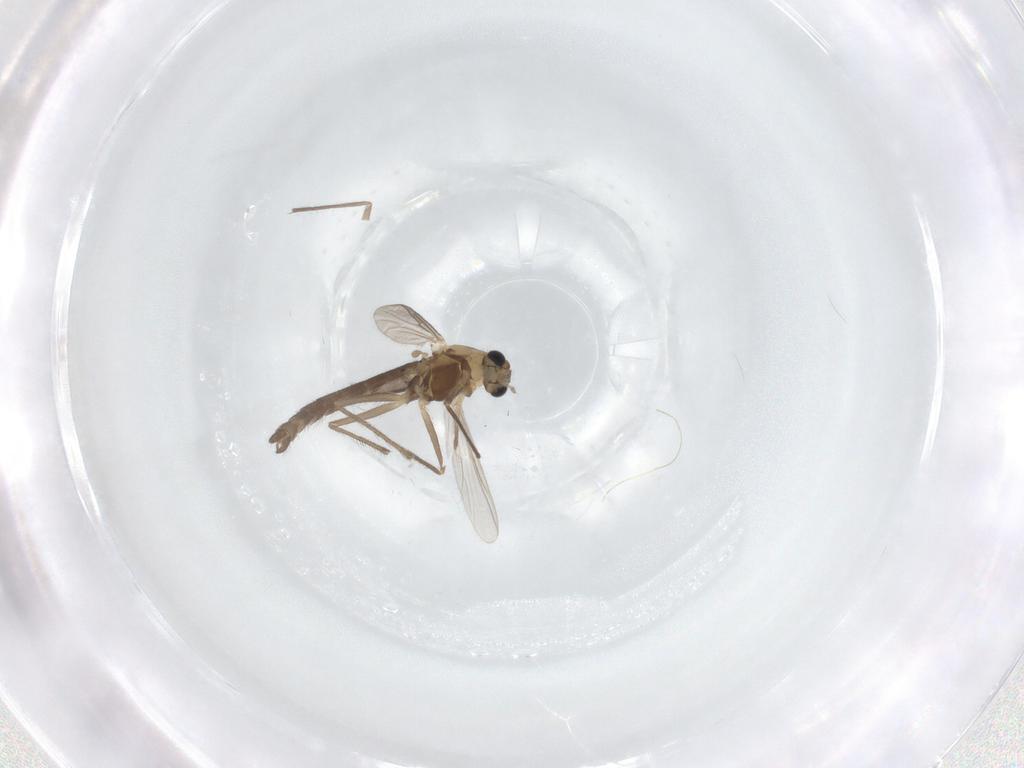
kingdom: Animalia
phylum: Arthropoda
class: Insecta
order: Diptera
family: Chironomidae
